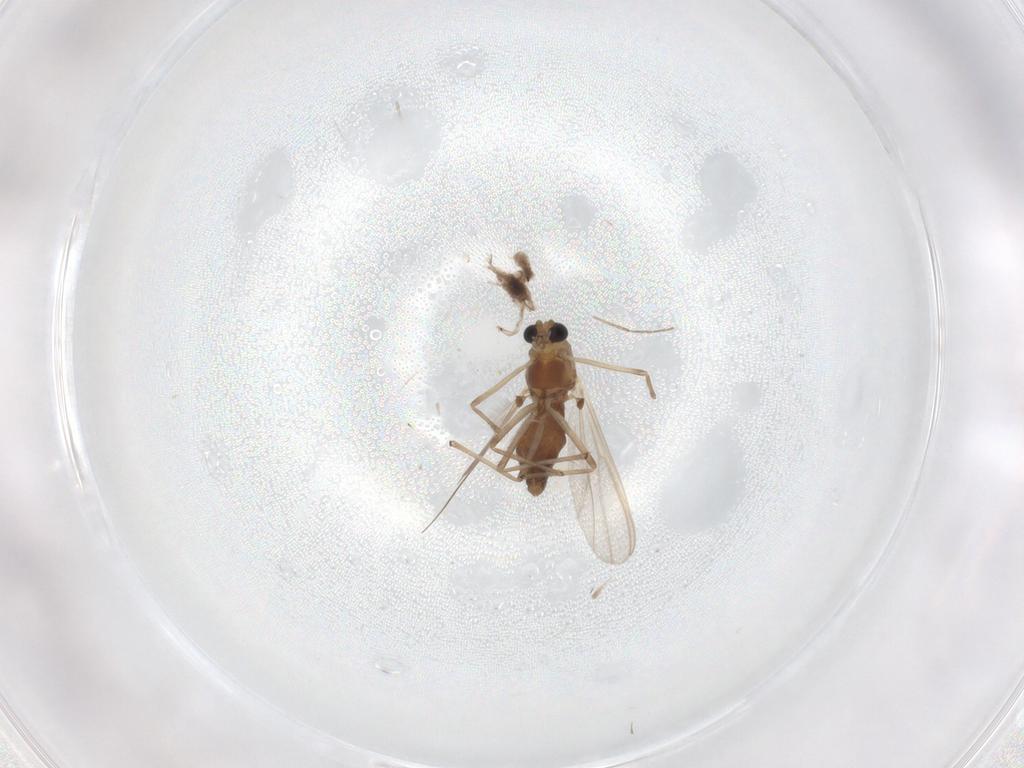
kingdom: Animalia
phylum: Arthropoda
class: Insecta
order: Diptera
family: Chironomidae
